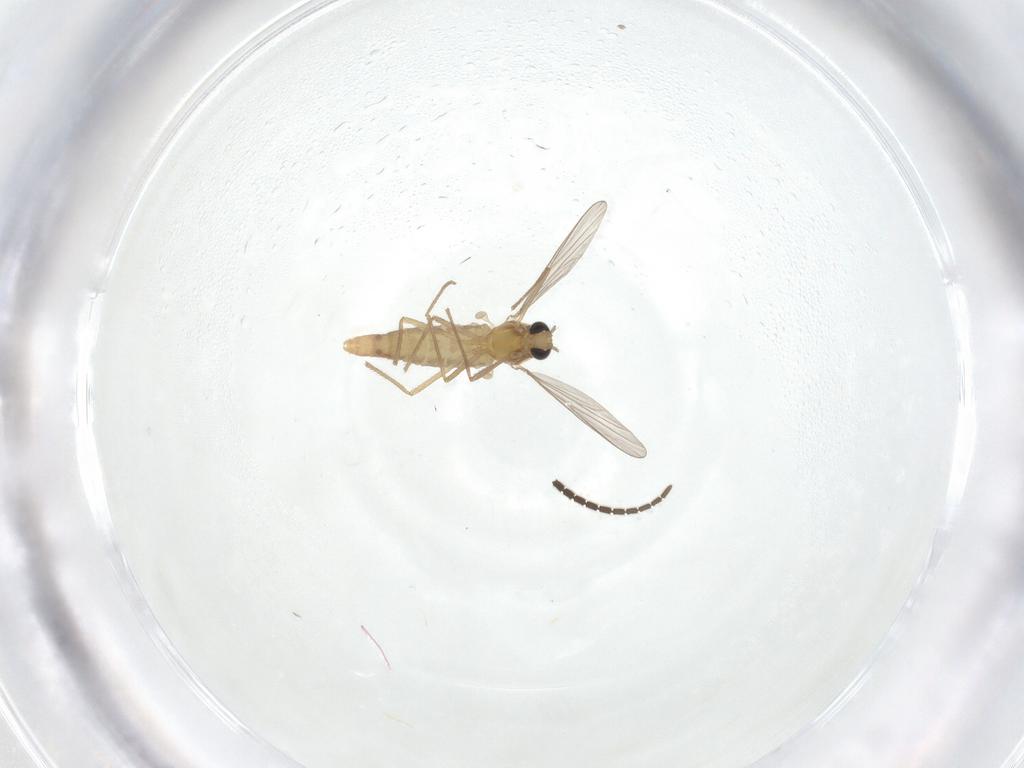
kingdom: Animalia
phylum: Arthropoda
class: Insecta
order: Diptera
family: Chironomidae
